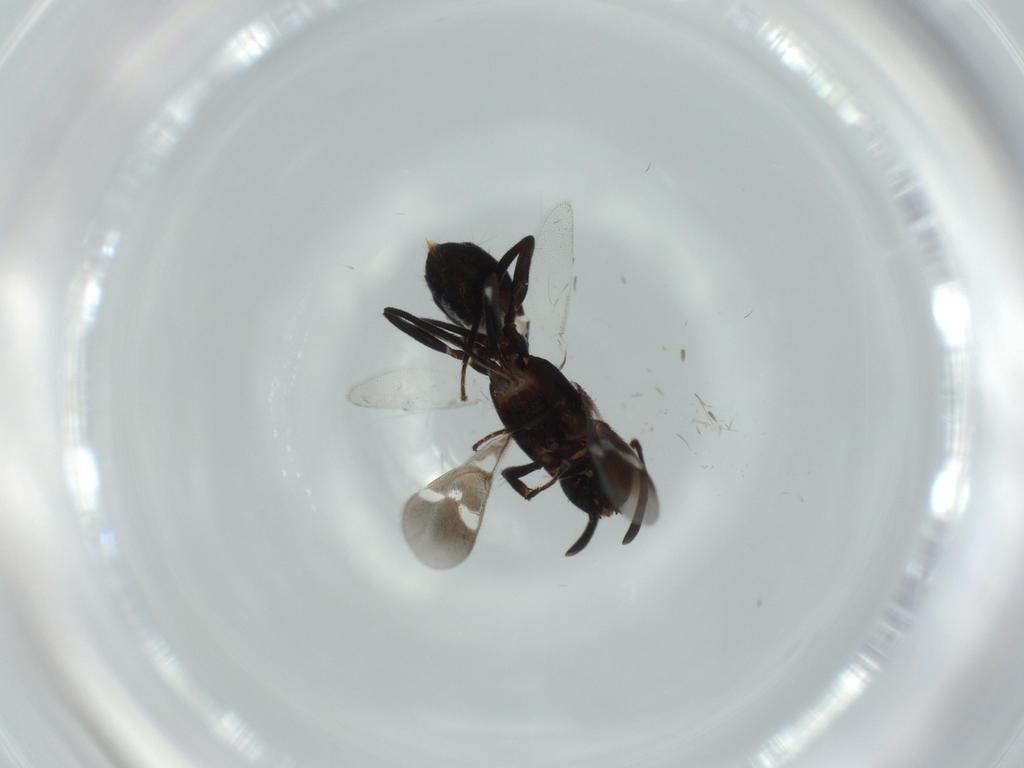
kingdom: Animalia
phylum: Arthropoda
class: Insecta
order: Hymenoptera
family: Eupelmidae
